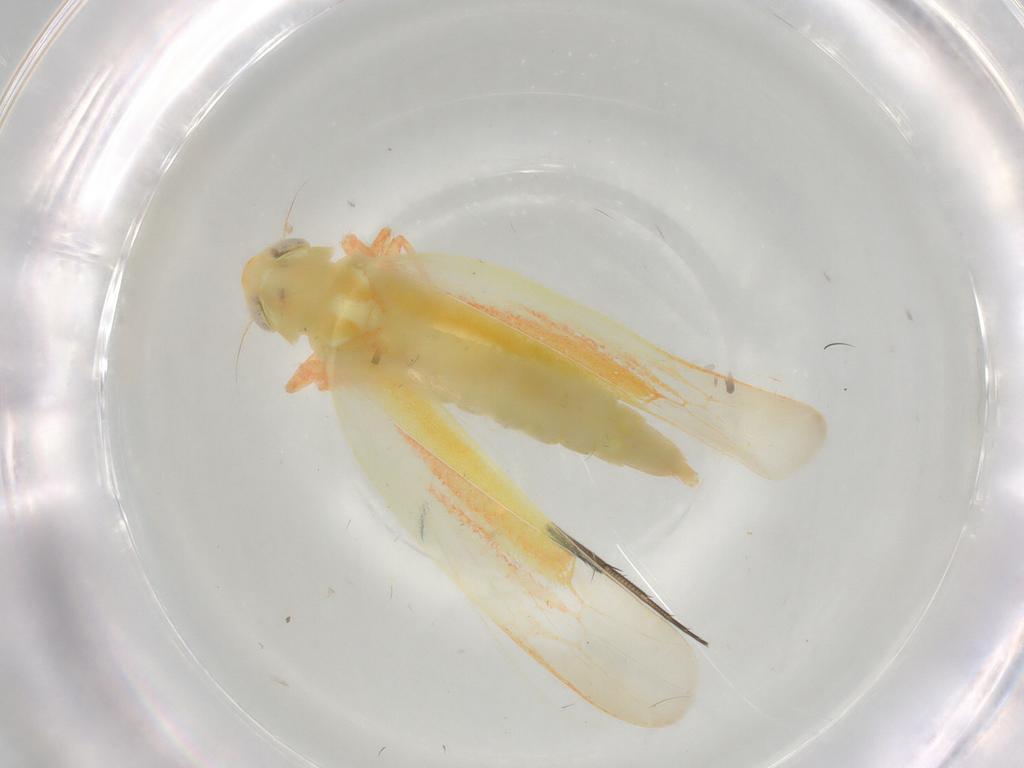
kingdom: Animalia
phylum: Arthropoda
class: Insecta
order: Hemiptera
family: Cicadellidae
